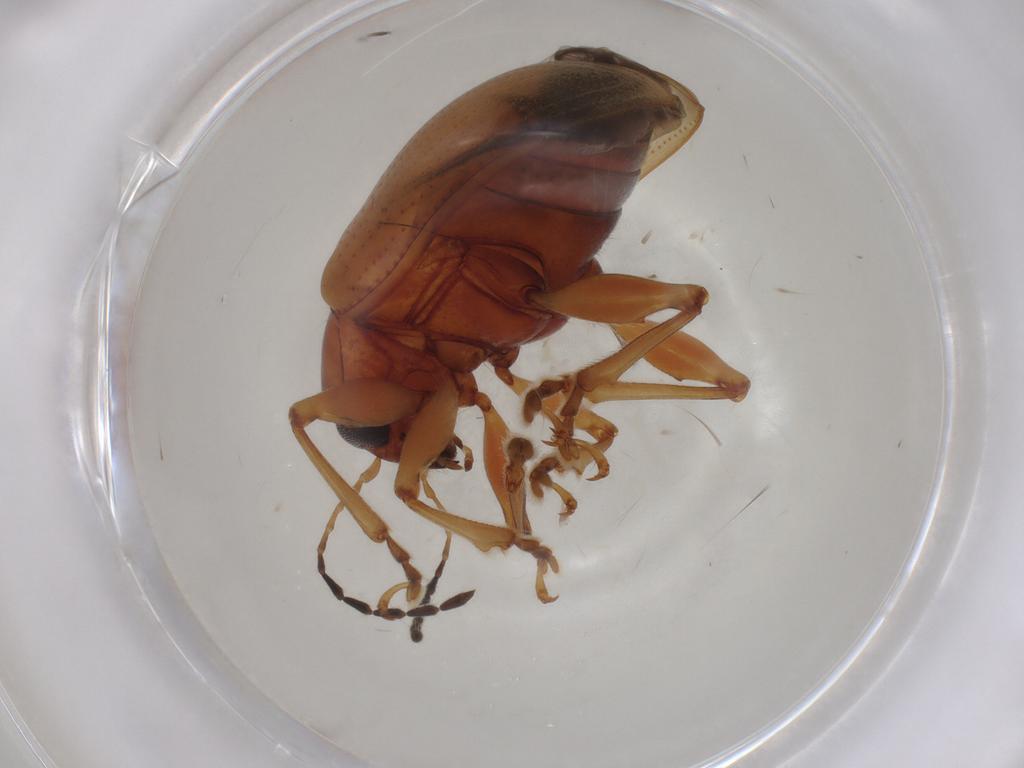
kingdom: Animalia
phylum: Arthropoda
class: Insecta
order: Coleoptera
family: Chrysomelidae
